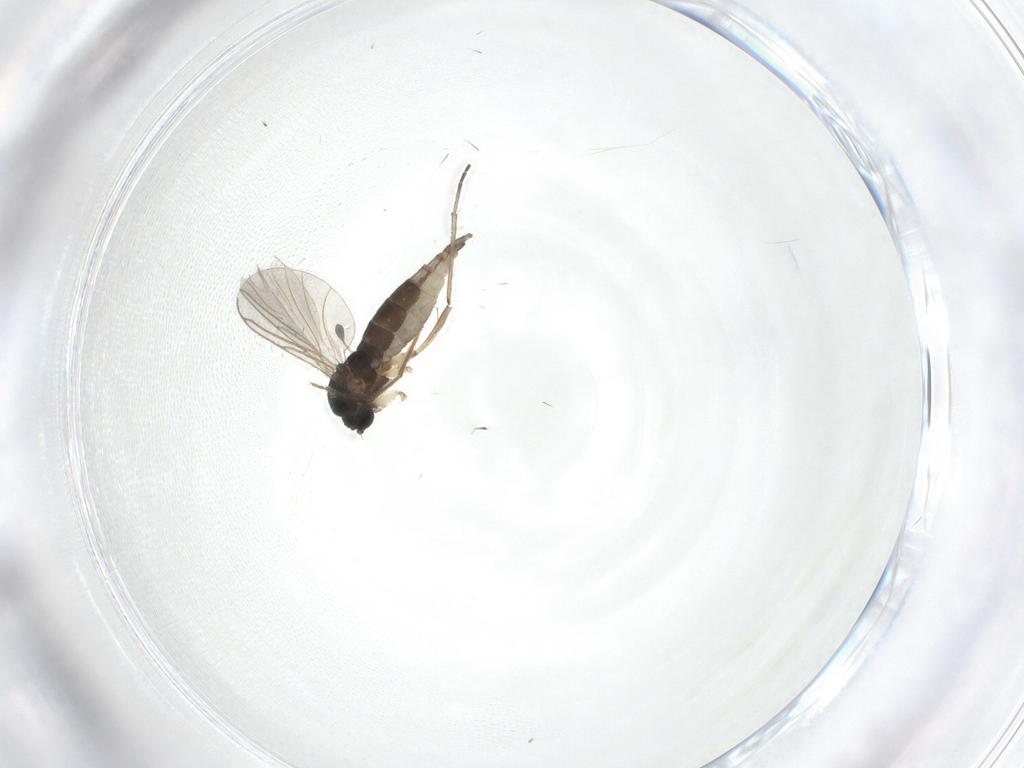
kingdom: Animalia
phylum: Arthropoda
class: Insecta
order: Diptera
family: Sciaridae
